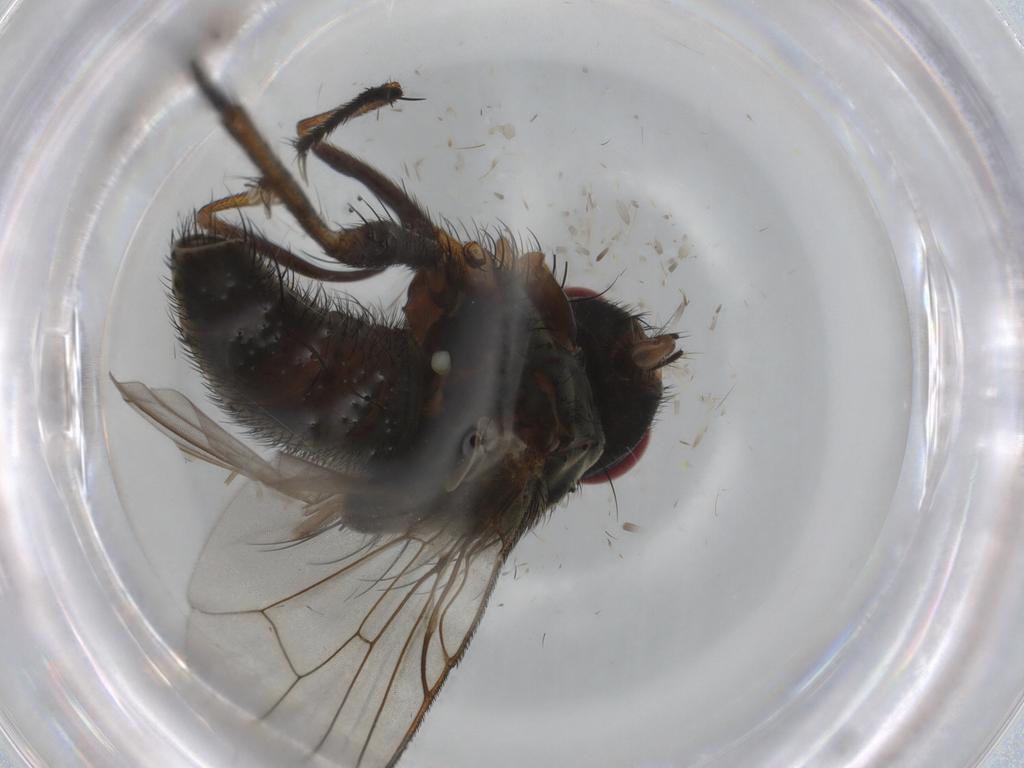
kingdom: Animalia
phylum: Arthropoda
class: Insecta
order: Diptera
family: Muscidae
